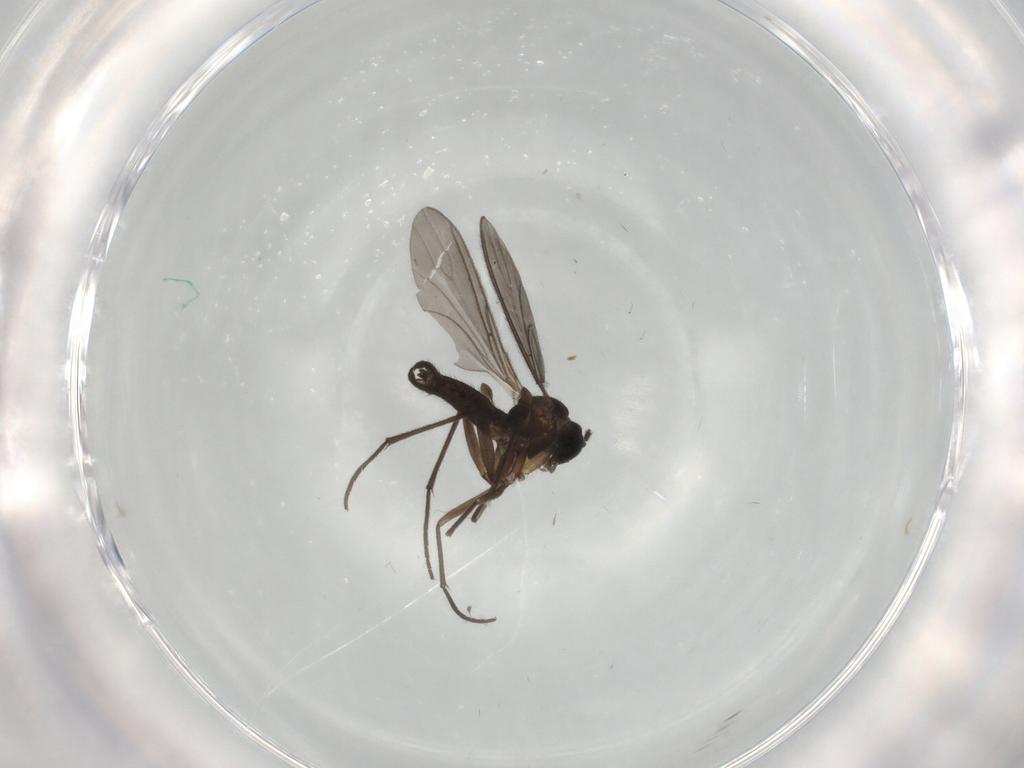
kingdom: Animalia
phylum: Arthropoda
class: Insecta
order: Diptera
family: Sciaridae
